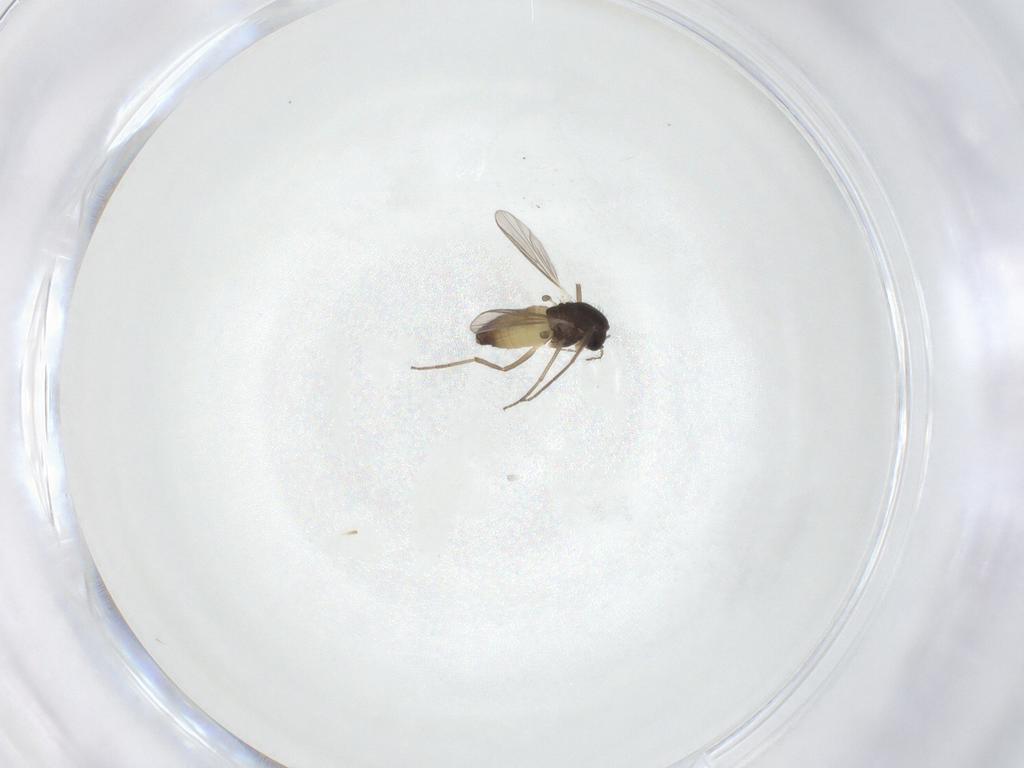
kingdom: Animalia
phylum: Arthropoda
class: Insecta
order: Diptera
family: Chironomidae
